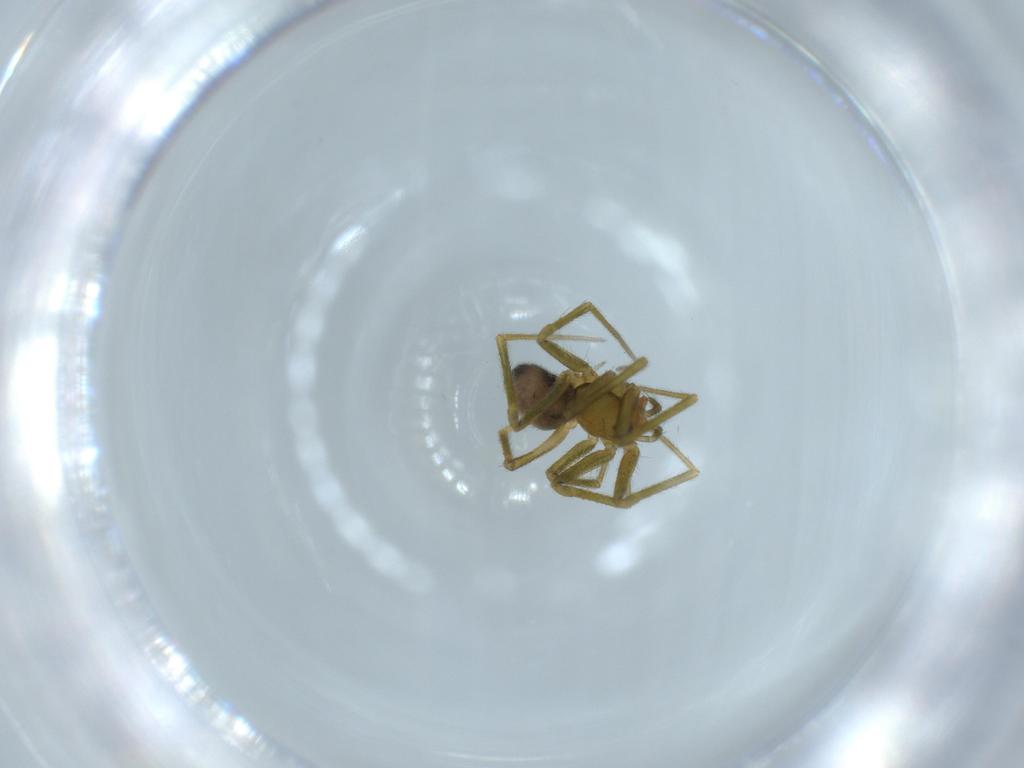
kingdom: Animalia
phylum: Arthropoda
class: Arachnida
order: Araneae
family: Linyphiidae
